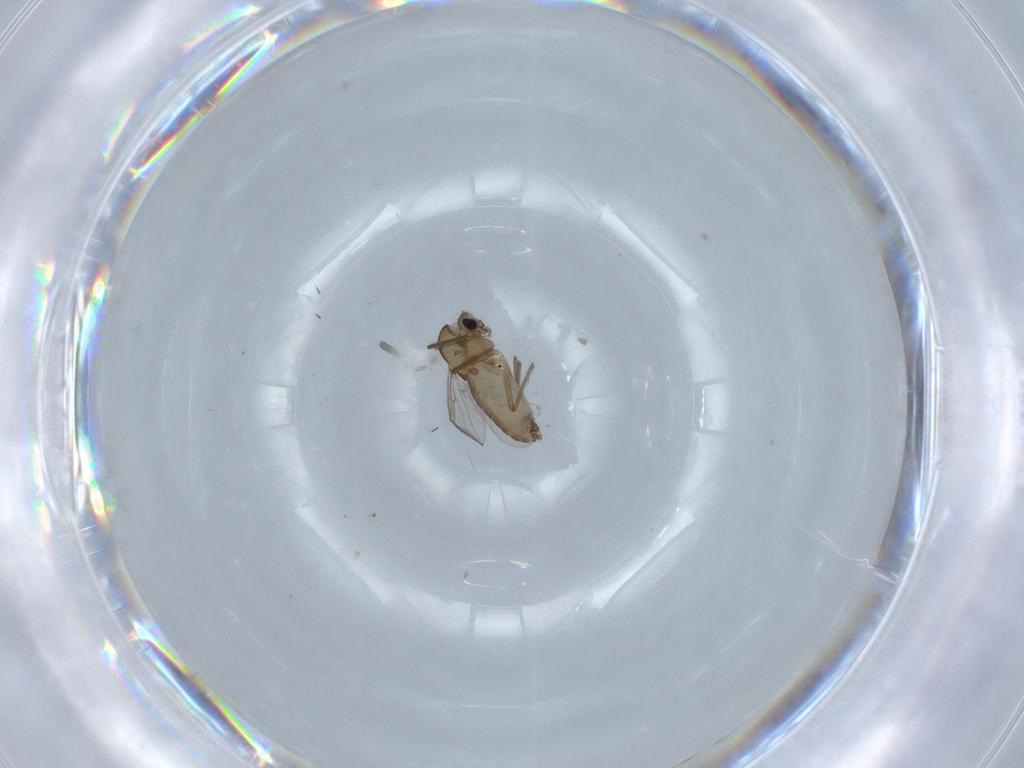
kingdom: Animalia
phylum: Arthropoda
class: Insecta
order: Diptera
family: Chironomidae
